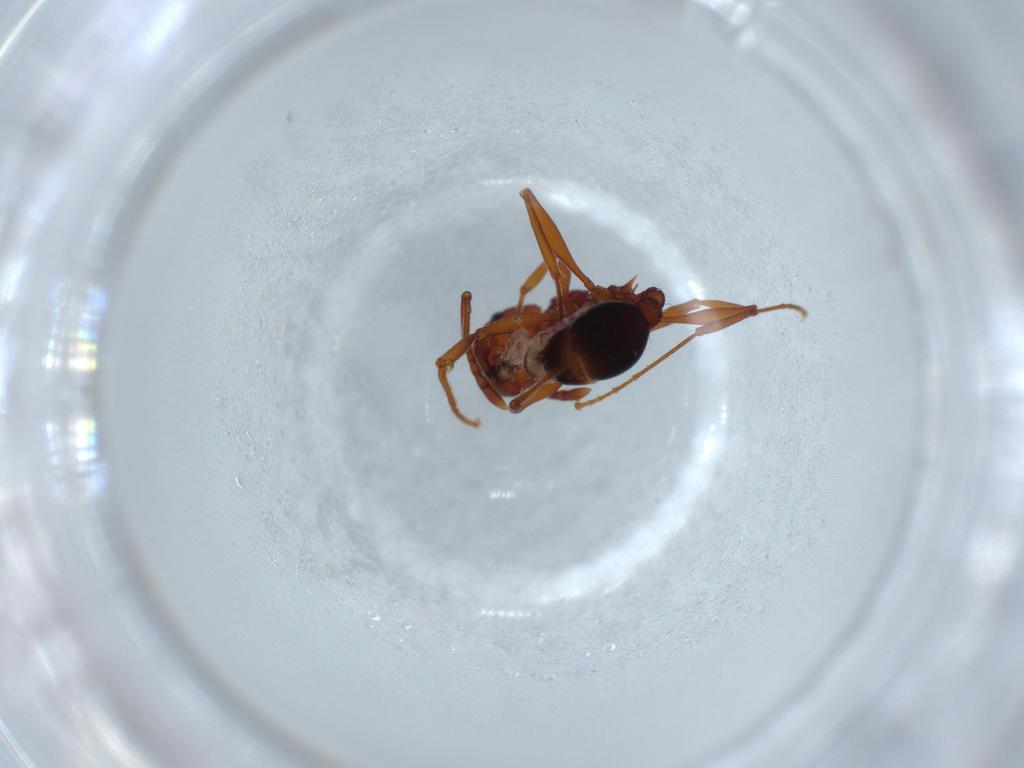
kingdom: Animalia
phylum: Arthropoda
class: Insecta
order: Hymenoptera
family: Formicidae
